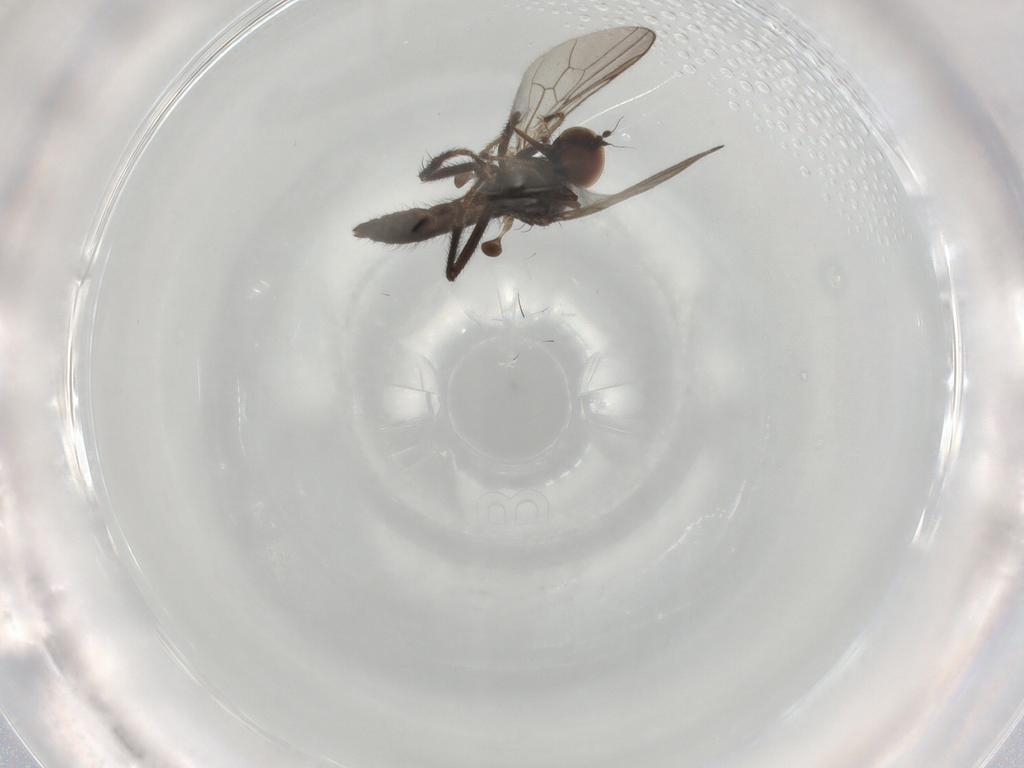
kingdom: Animalia
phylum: Arthropoda
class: Insecta
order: Diptera
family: Hybotidae
